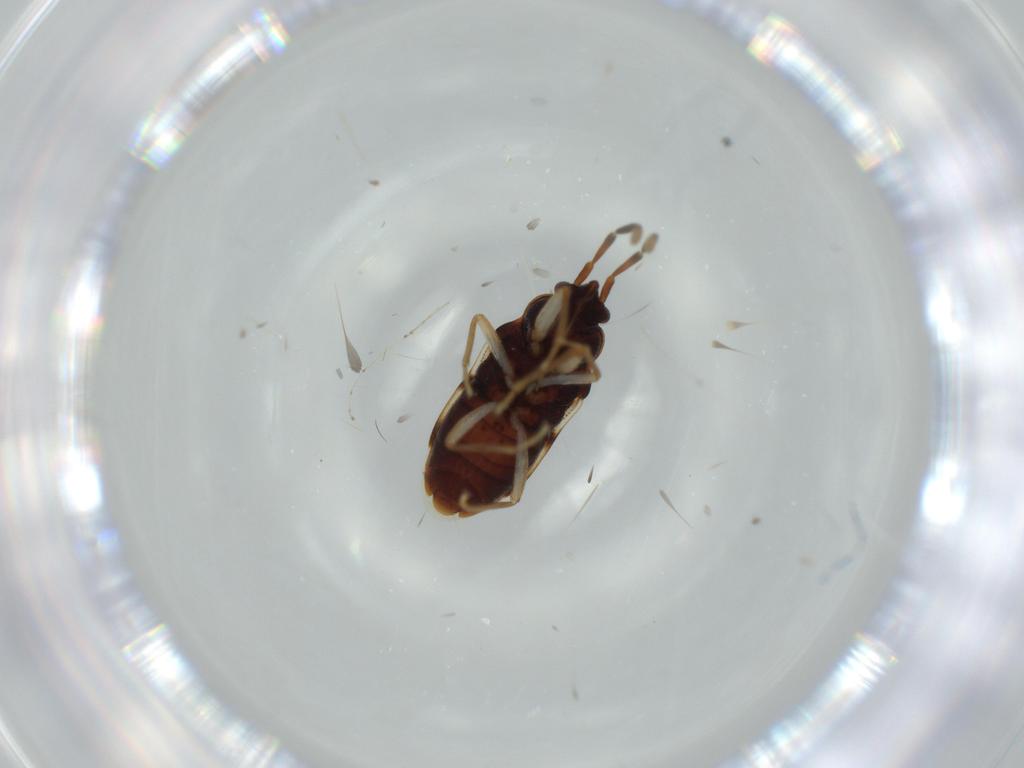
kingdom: Animalia
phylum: Arthropoda
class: Insecta
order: Hemiptera
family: Rhyparochromidae
